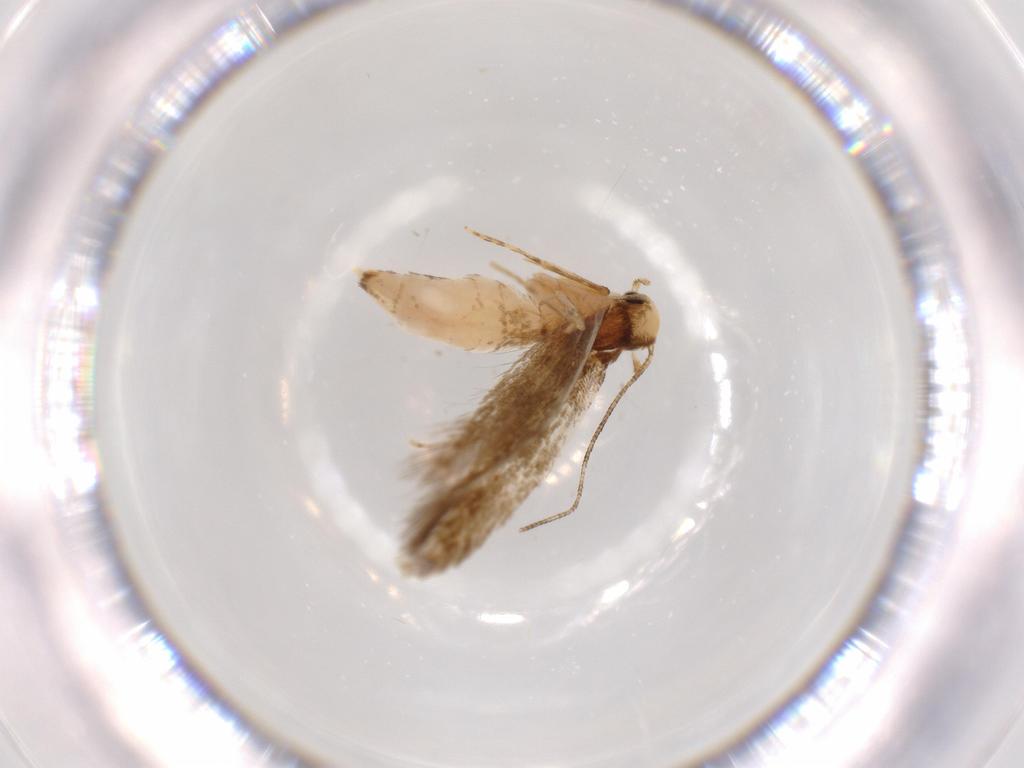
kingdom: Animalia
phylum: Arthropoda
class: Insecta
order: Lepidoptera
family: Tineidae
